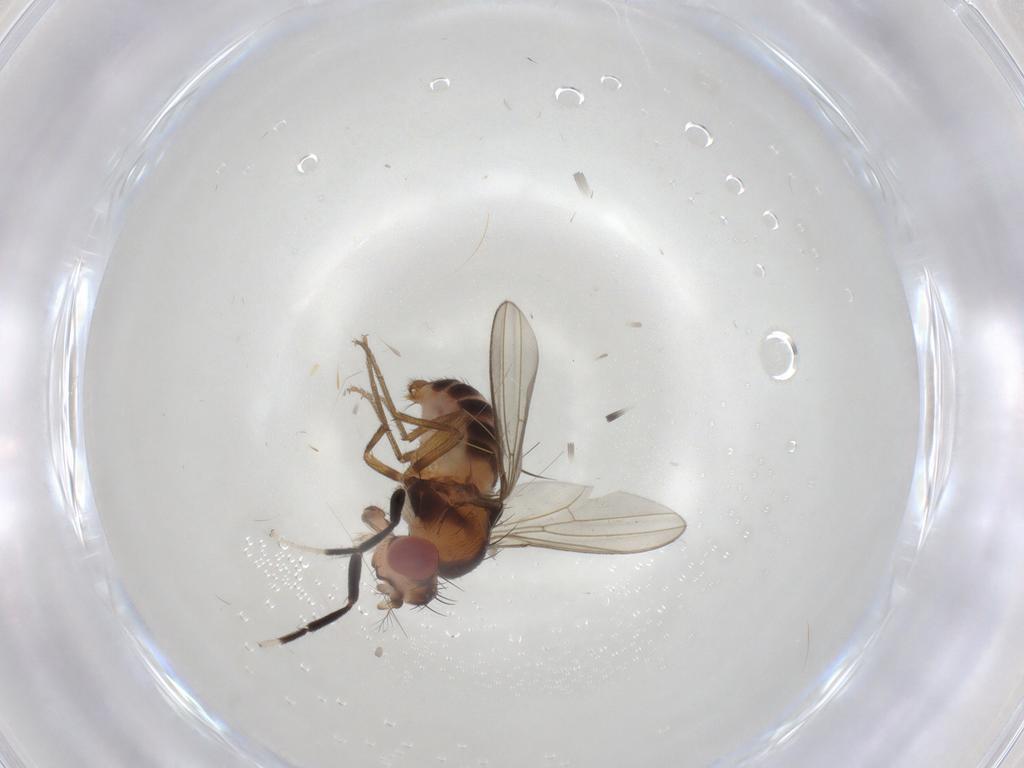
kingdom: Animalia
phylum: Arthropoda
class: Insecta
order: Diptera
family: Drosophilidae
